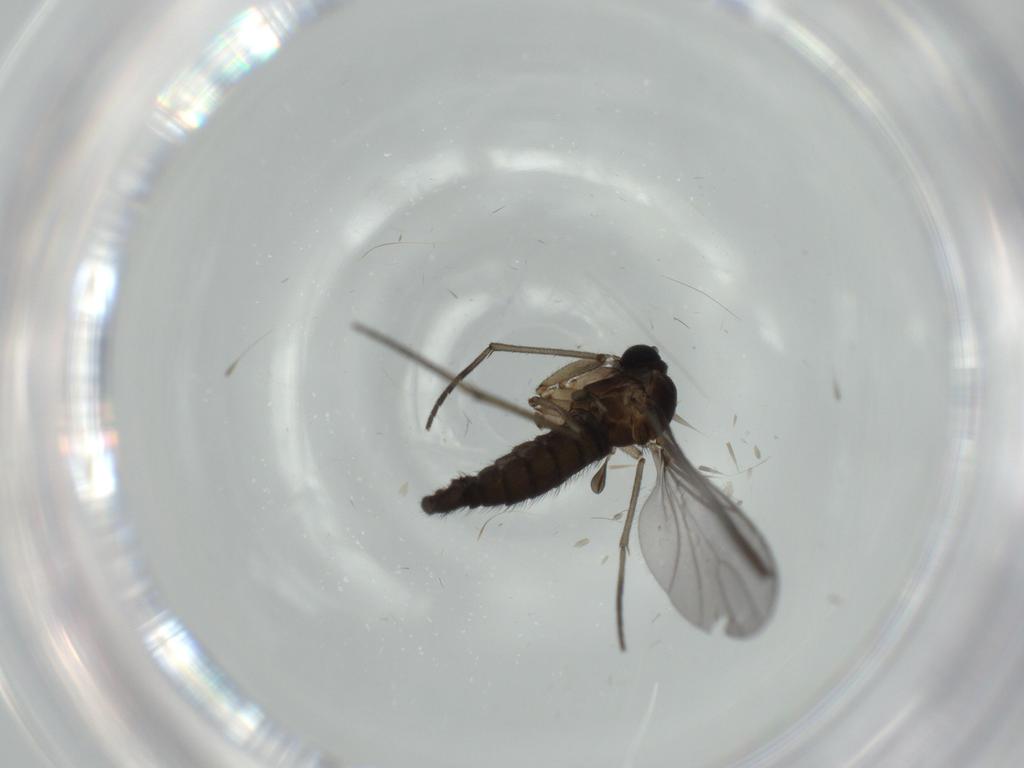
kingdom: Animalia
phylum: Arthropoda
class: Insecta
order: Diptera
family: Sciaridae
